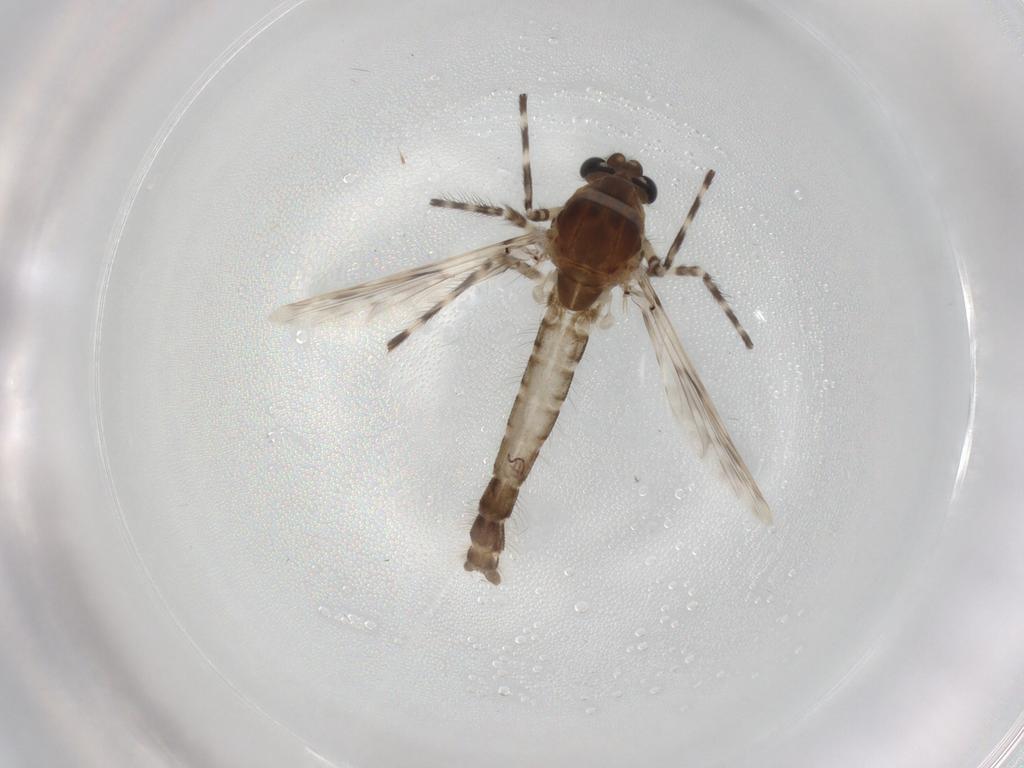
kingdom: Animalia
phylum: Arthropoda
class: Insecta
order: Diptera
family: Chironomidae
